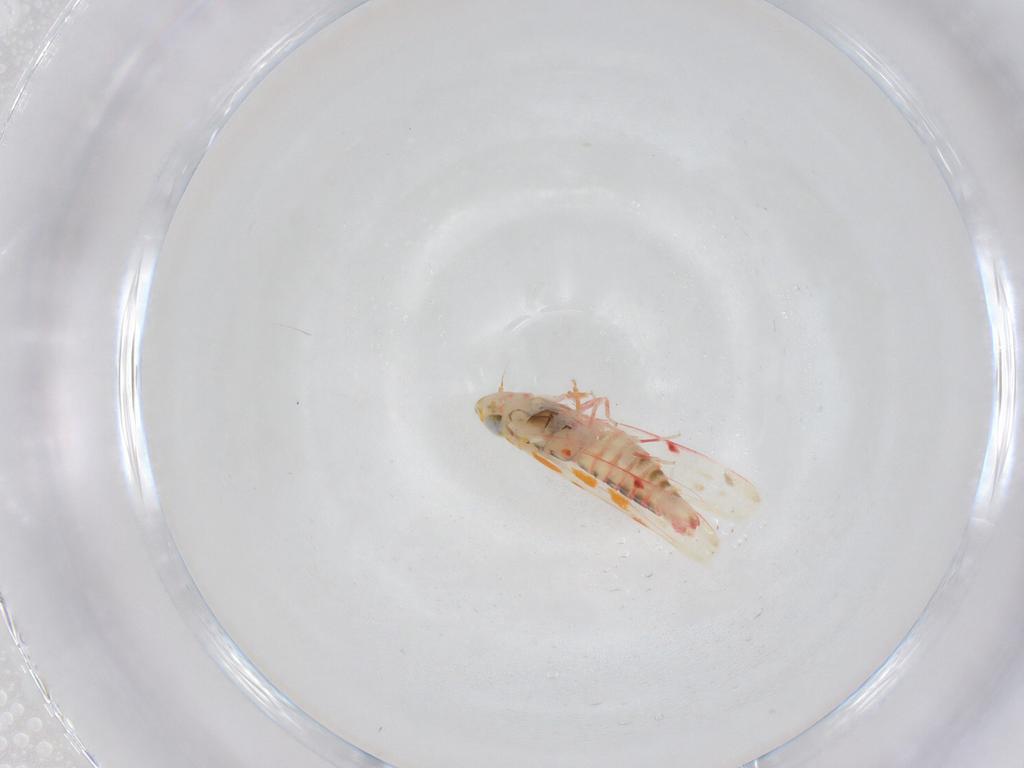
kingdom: Animalia
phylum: Arthropoda
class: Insecta
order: Hemiptera
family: Cicadellidae
